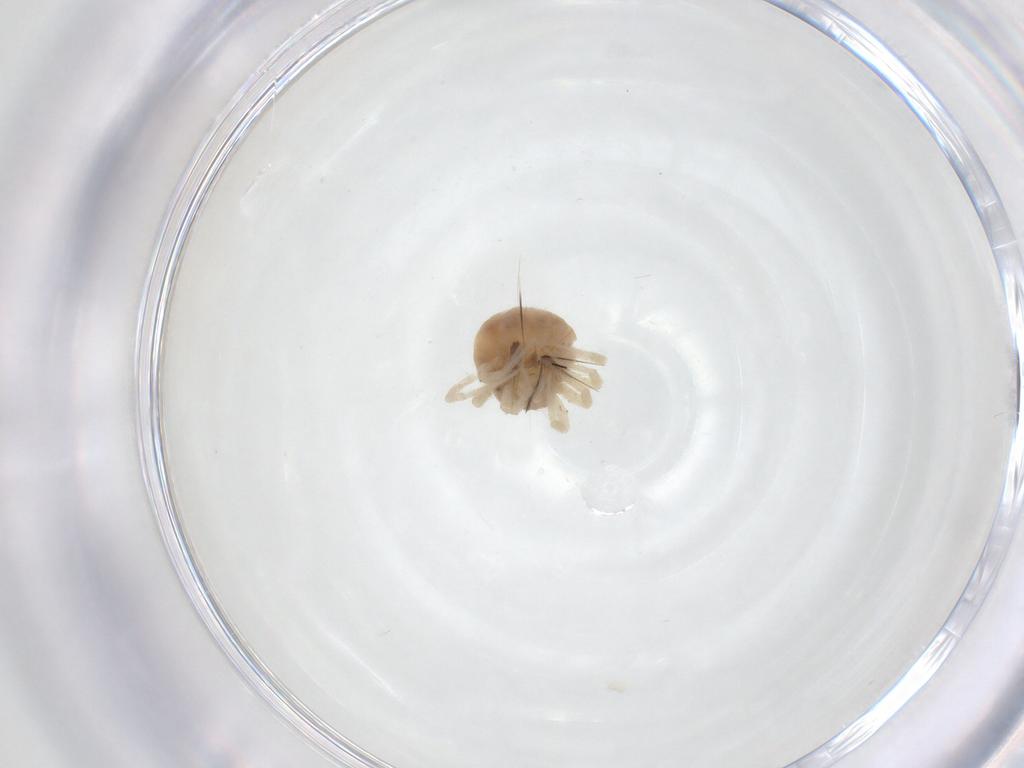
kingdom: Animalia
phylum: Arthropoda
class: Arachnida
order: Trombidiformes
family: Anystidae
